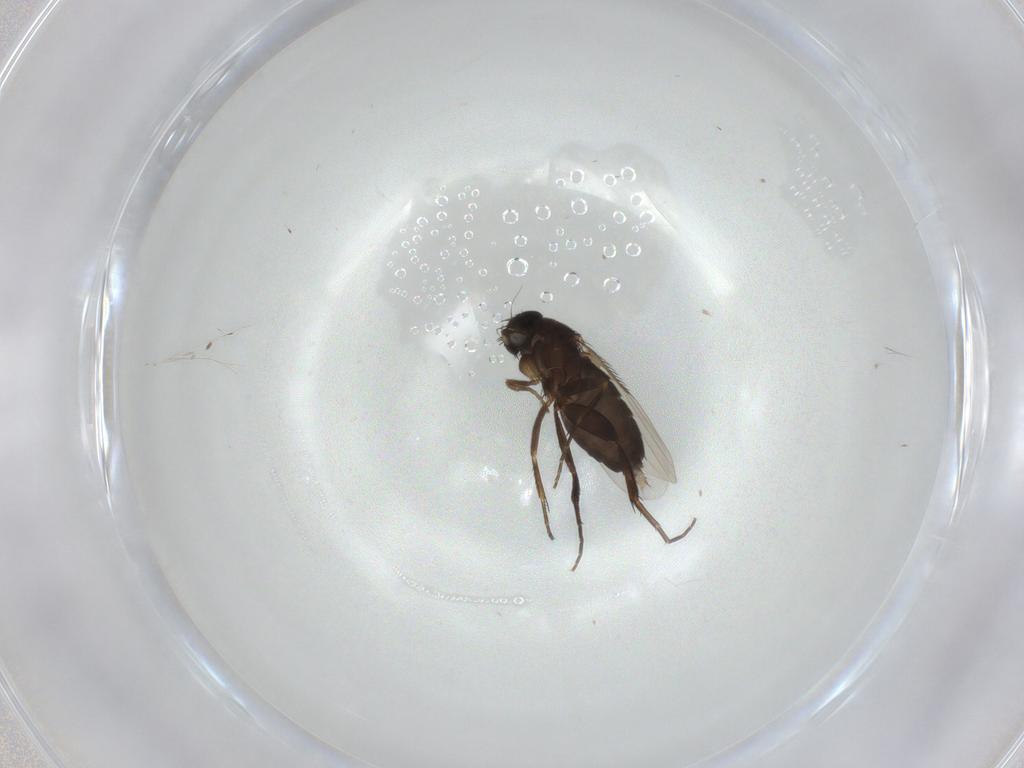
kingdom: Animalia
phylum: Arthropoda
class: Insecta
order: Diptera
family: Phoridae
